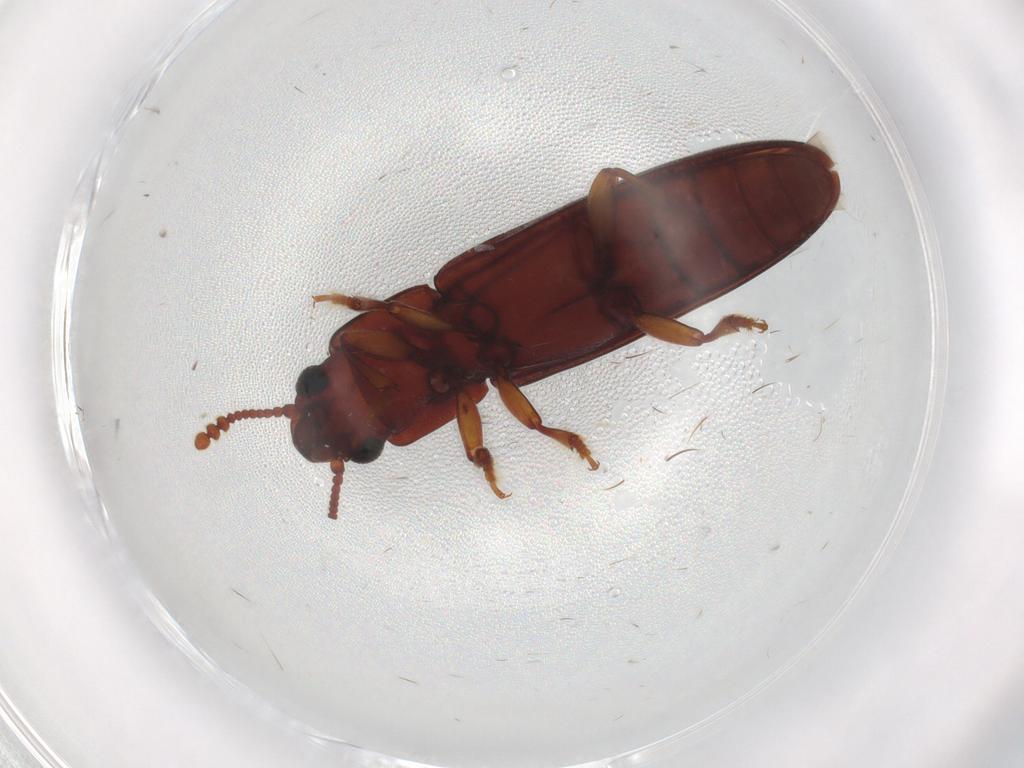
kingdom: Animalia
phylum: Arthropoda
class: Insecta
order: Coleoptera
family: Erotylidae
